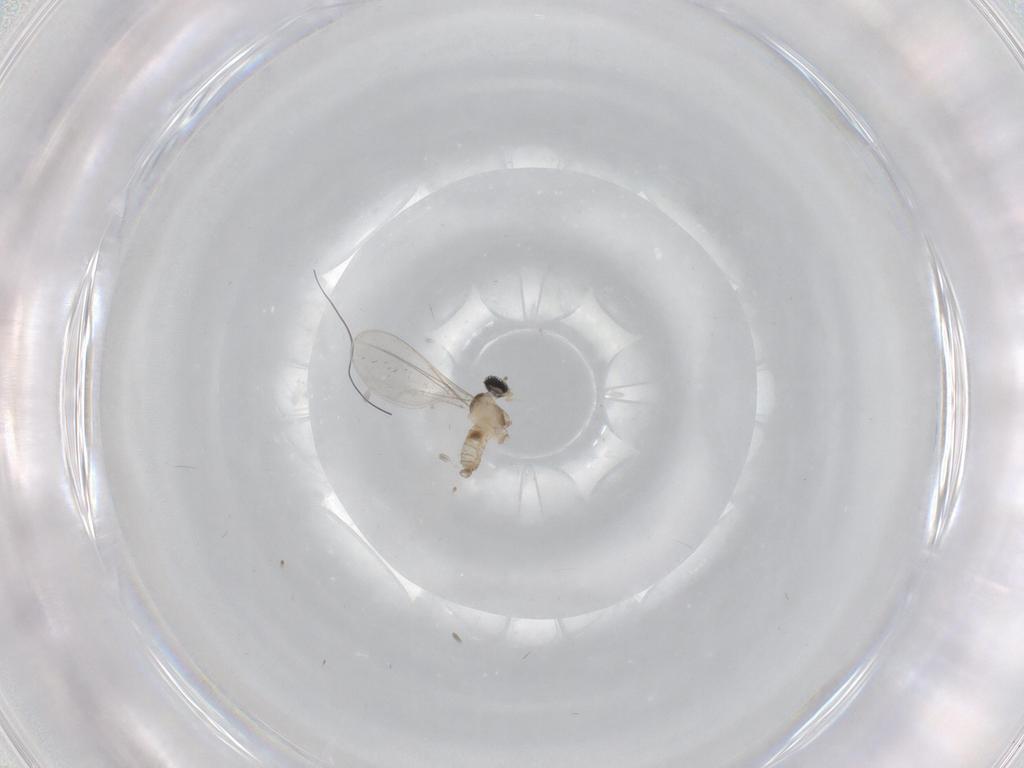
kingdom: Animalia
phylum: Arthropoda
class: Insecta
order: Diptera
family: Cecidomyiidae
